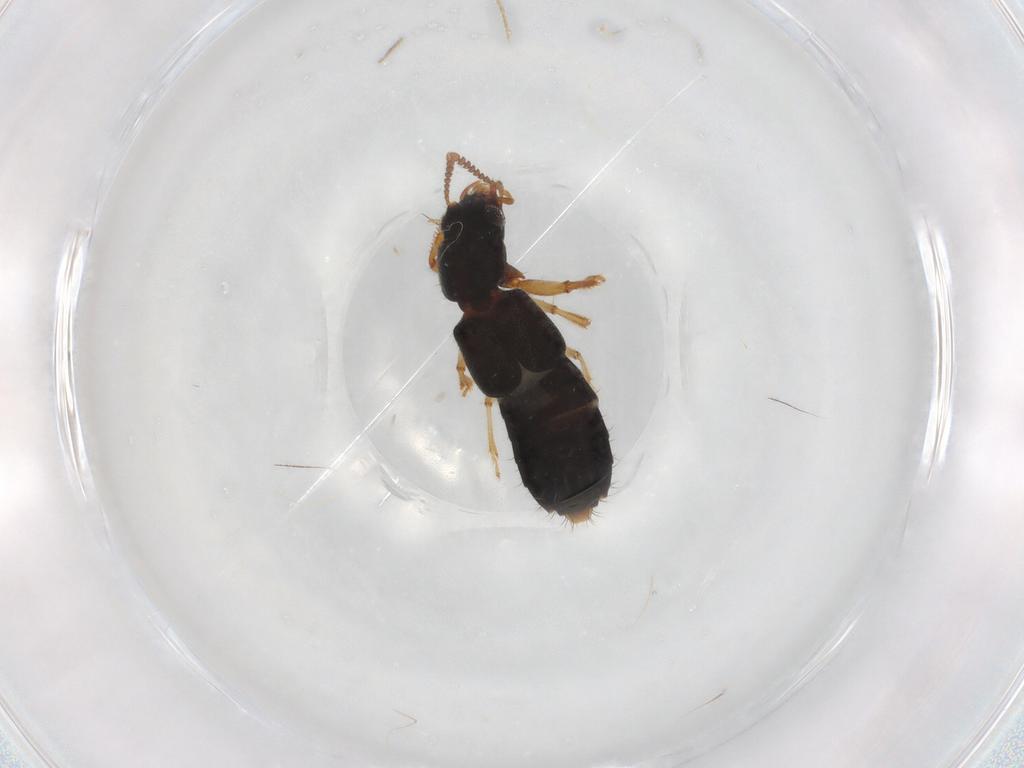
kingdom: Animalia
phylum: Arthropoda
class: Insecta
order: Coleoptera
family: Staphylinidae
